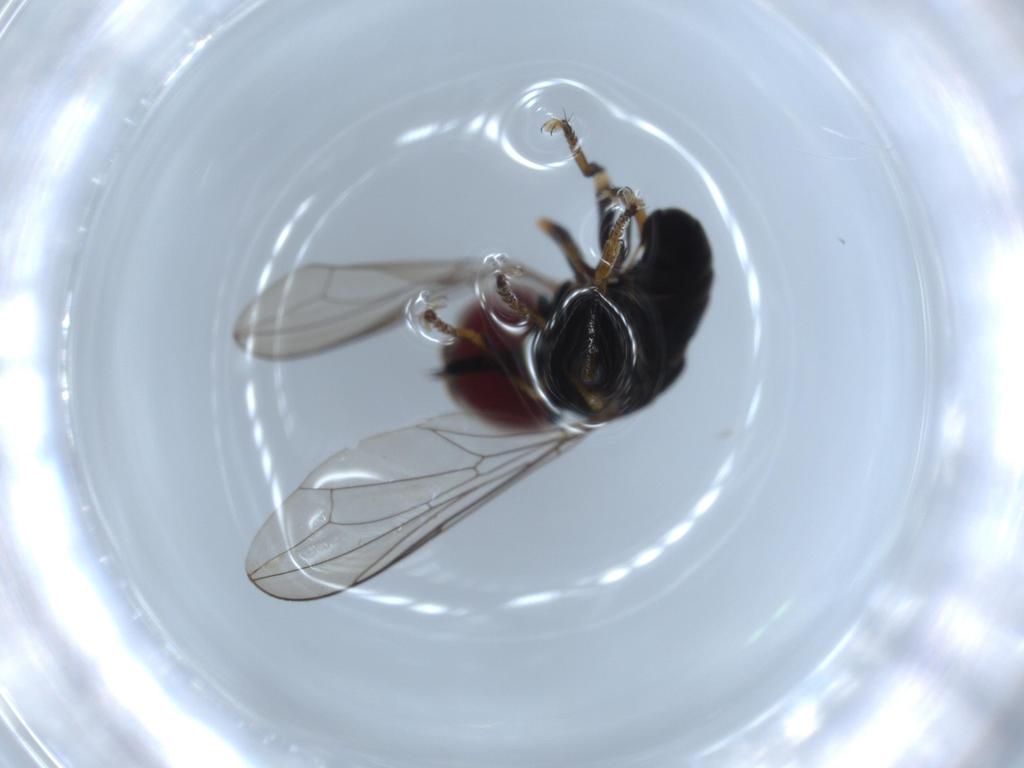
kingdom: Animalia
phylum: Arthropoda
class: Insecta
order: Diptera
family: Pipunculidae
